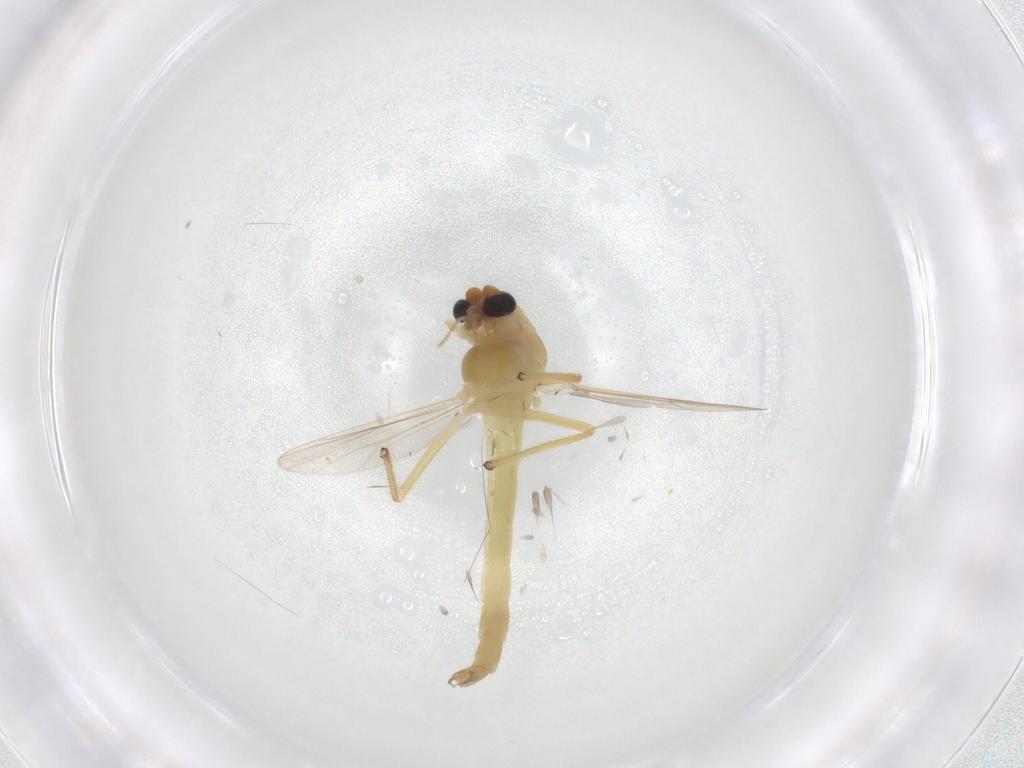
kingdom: Animalia
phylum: Arthropoda
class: Insecta
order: Diptera
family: Chironomidae
